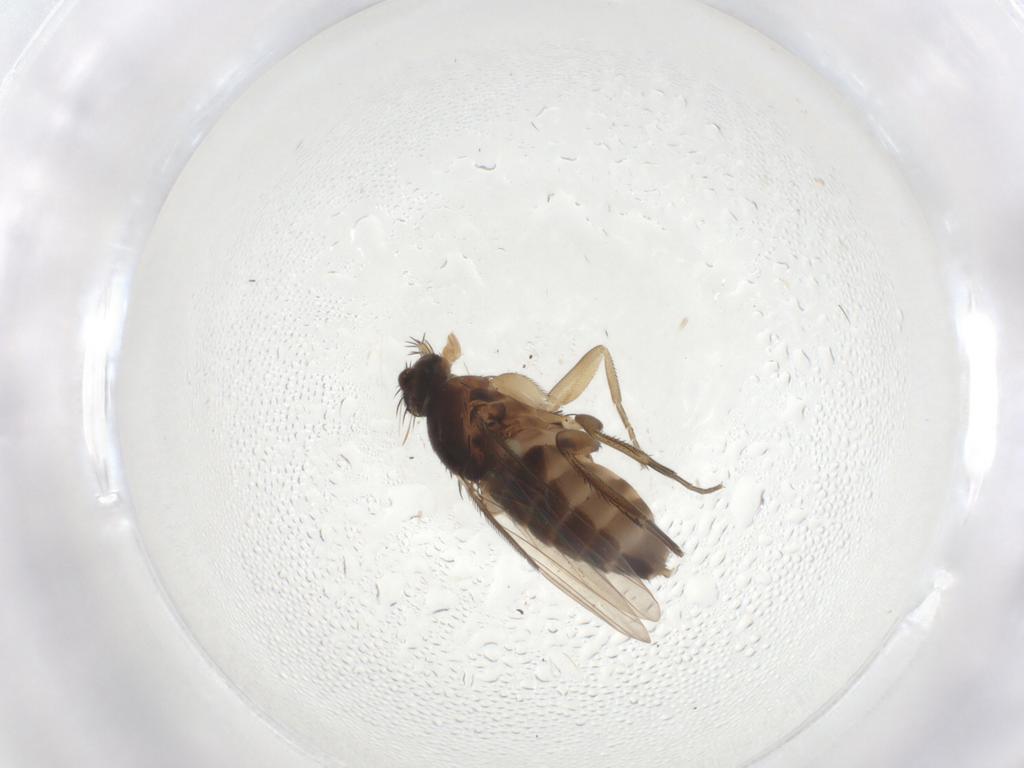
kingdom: Animalia
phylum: Arthropoda
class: Insecta
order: Diptera
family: Phoridae
